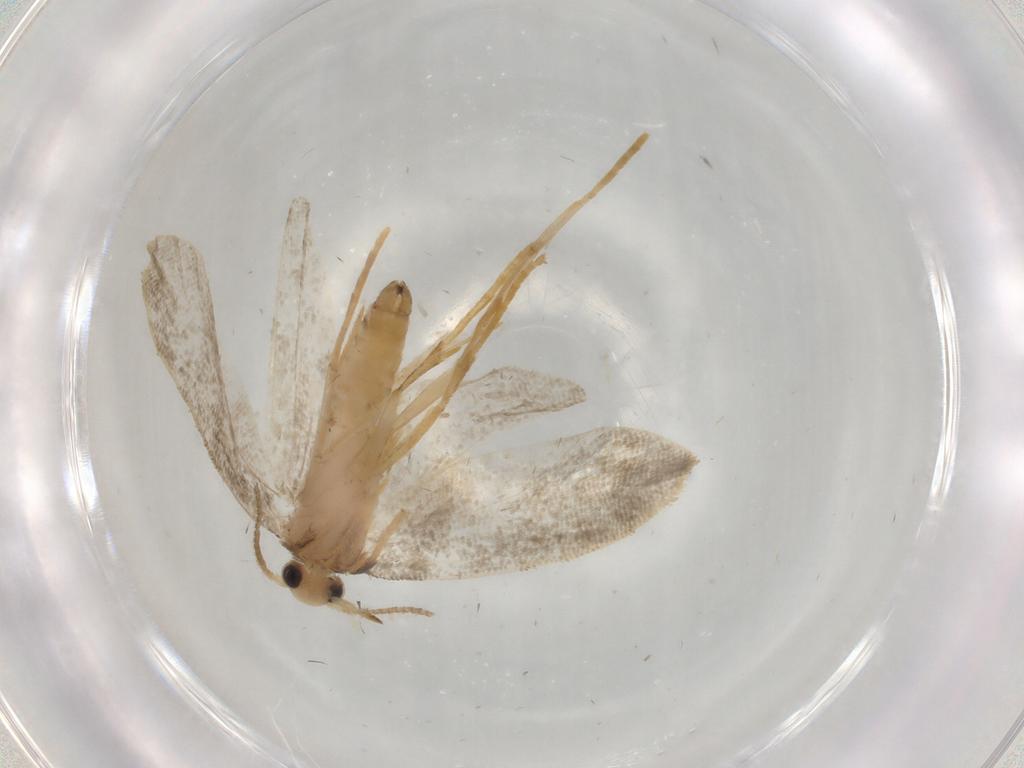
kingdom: Animalia
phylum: Arthropoda
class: Insecta
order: Lepidoptera
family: Psychidae
